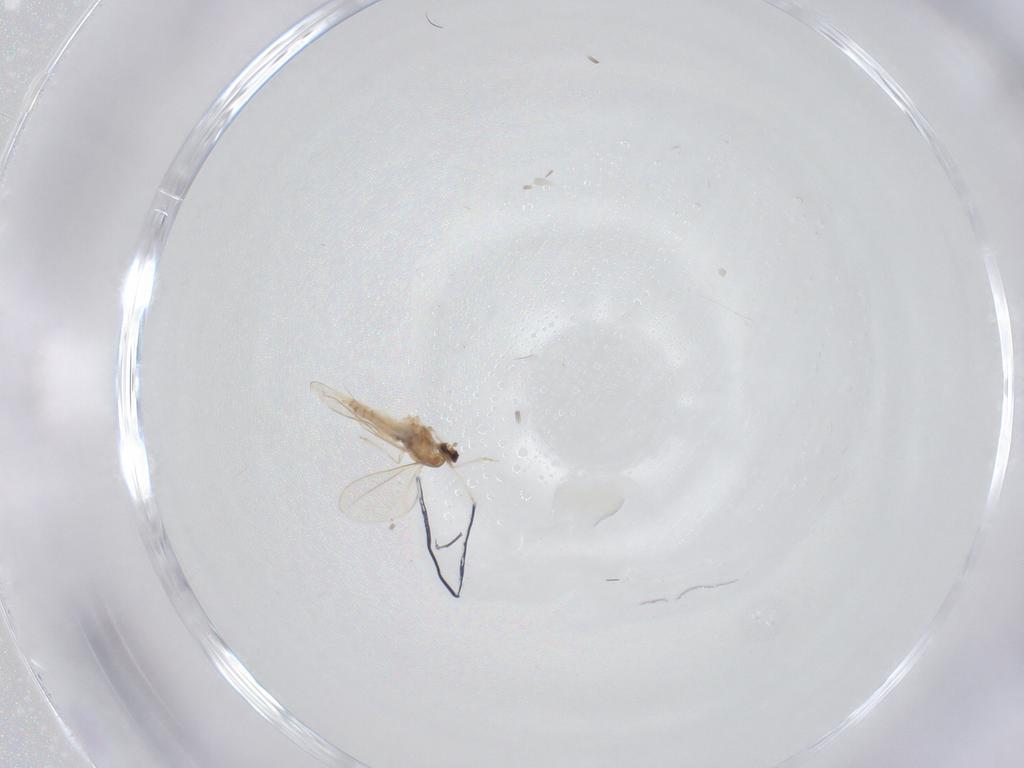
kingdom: Animalia
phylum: Arthropoda
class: Insecta
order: Diptera
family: Cecidomyiidae
